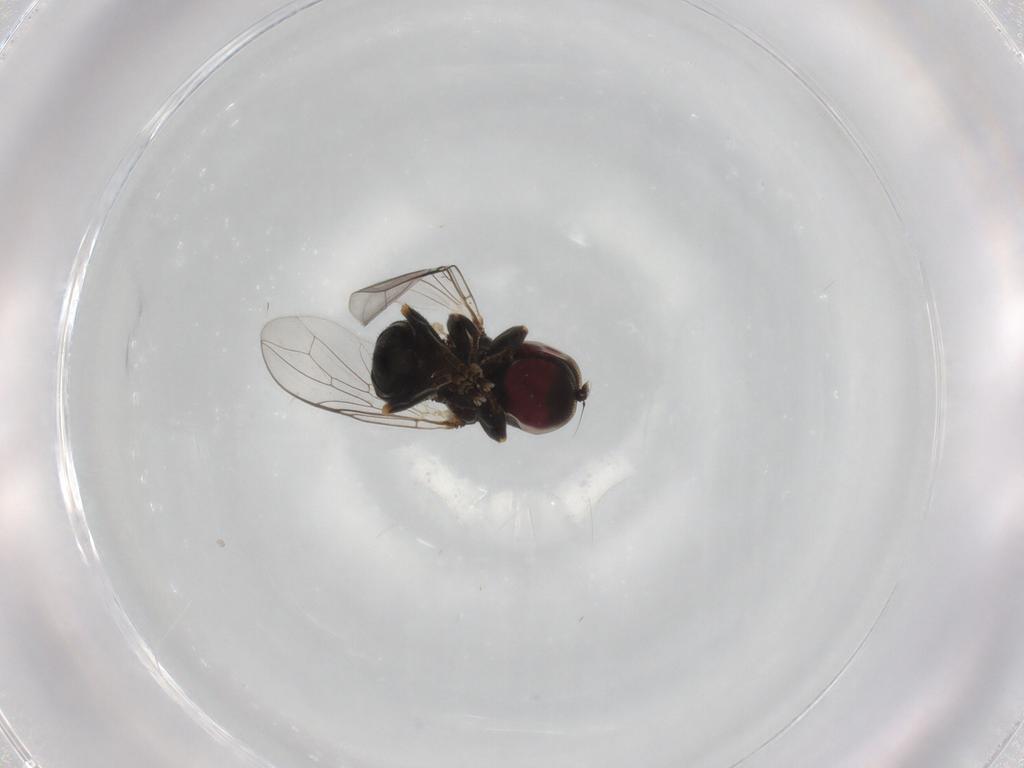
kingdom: Animalia
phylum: Arthropoda
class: Insecta
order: Diptera
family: Pipunculidae
